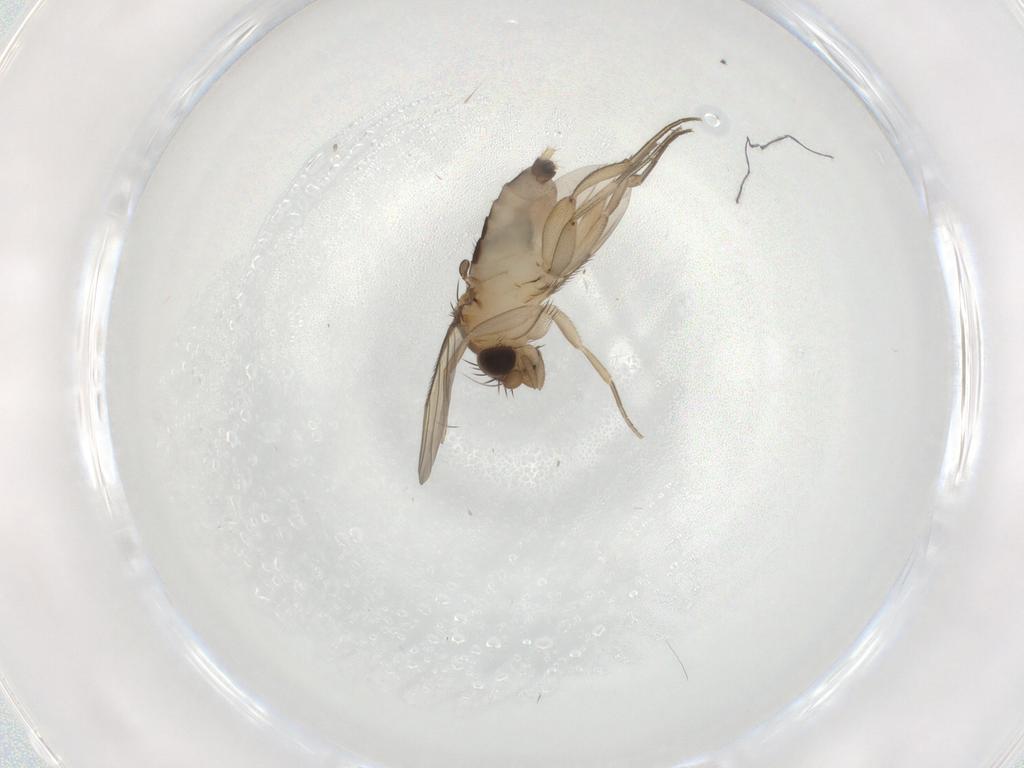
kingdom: Animalia
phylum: Arthropoda
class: Insecta
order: Diptera
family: Phoridae
